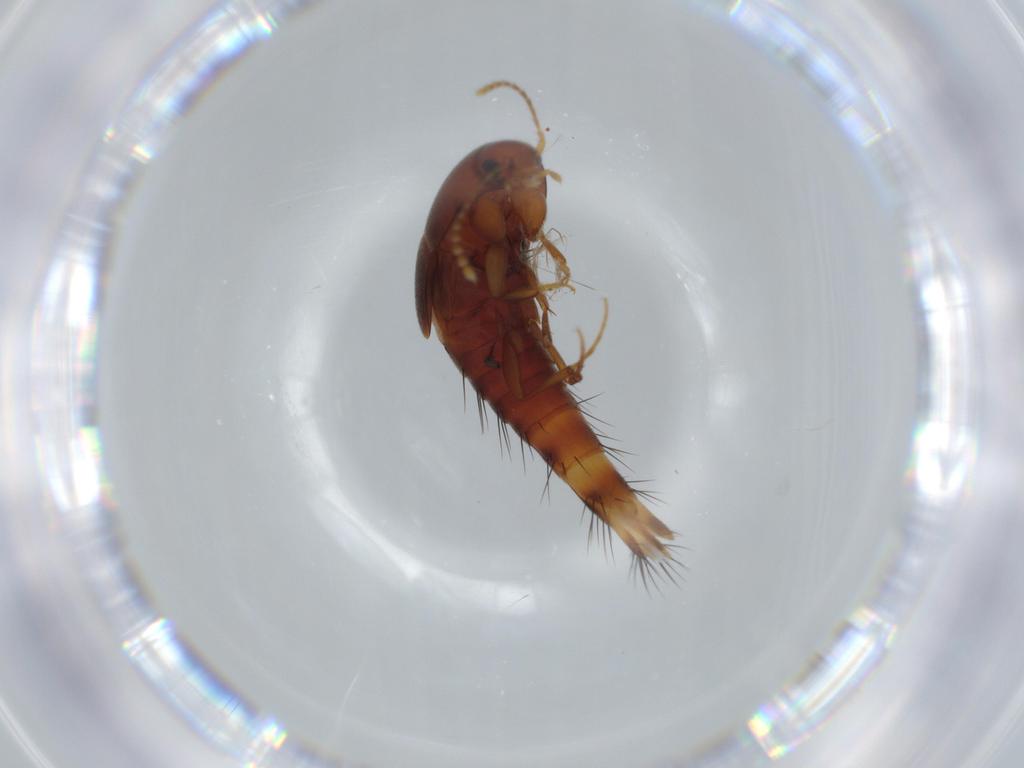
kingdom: Animalia
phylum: Arthropoda
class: Insecta
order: Coleoptera
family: Staphylinidae
